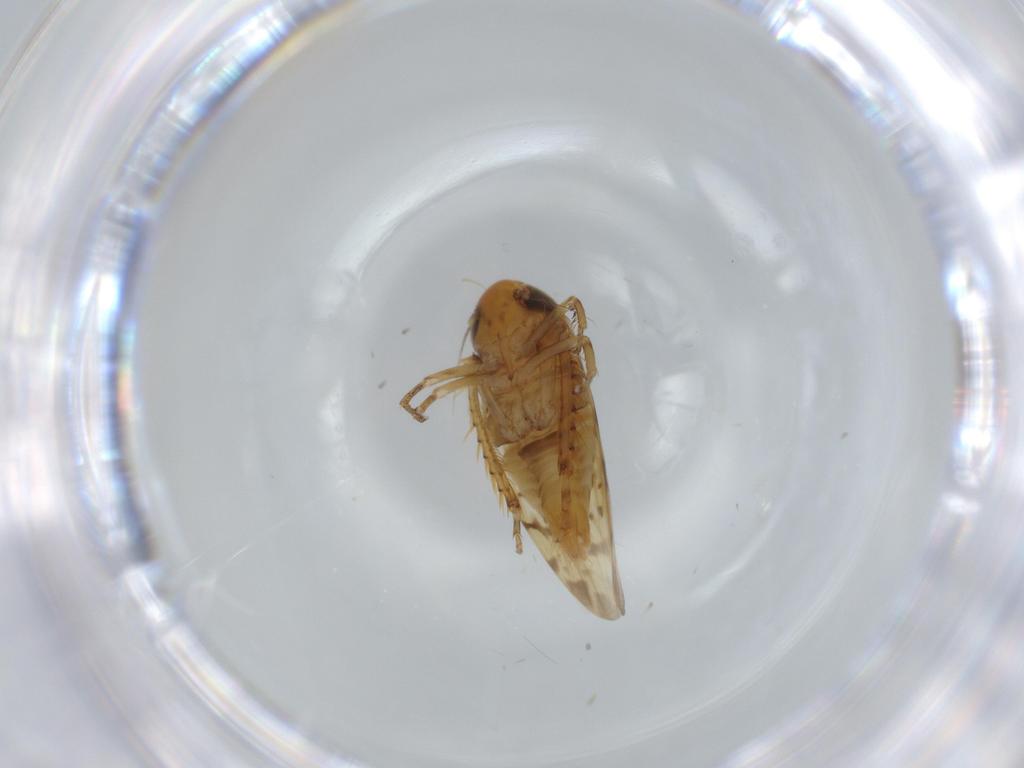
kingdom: Animalia
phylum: Arthropoda
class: Insecta
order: Hemiptera
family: Cicadellidae
